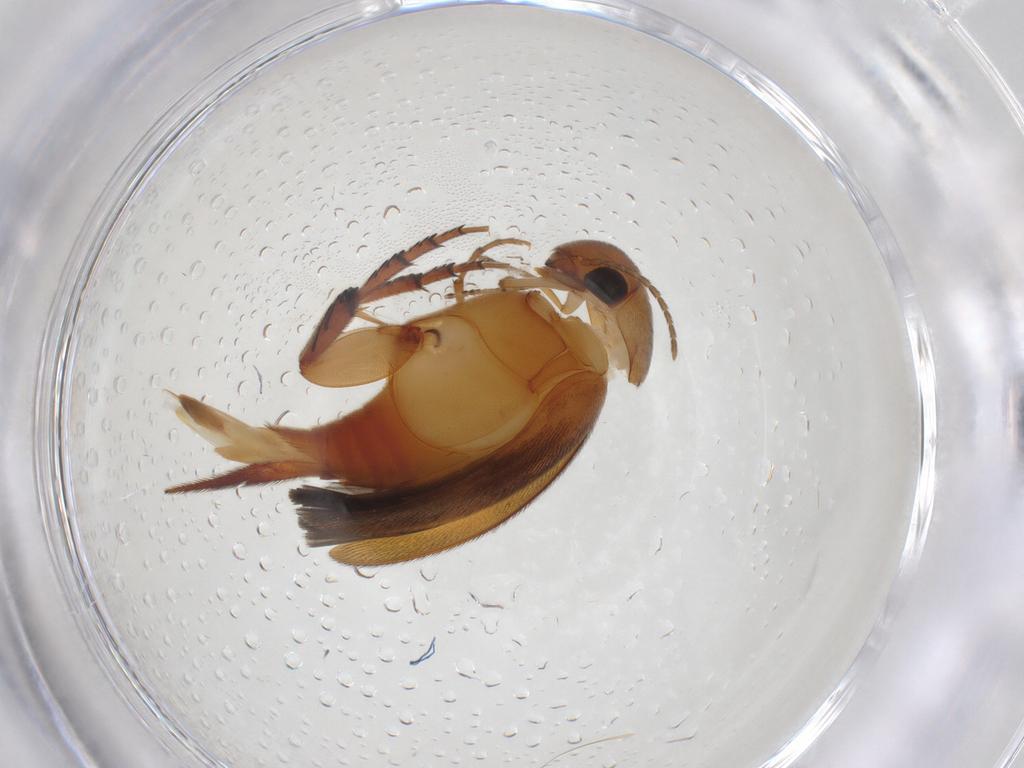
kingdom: Animalia
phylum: Arthropoda
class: Insecta
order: Coleoptera
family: Mordellidae
